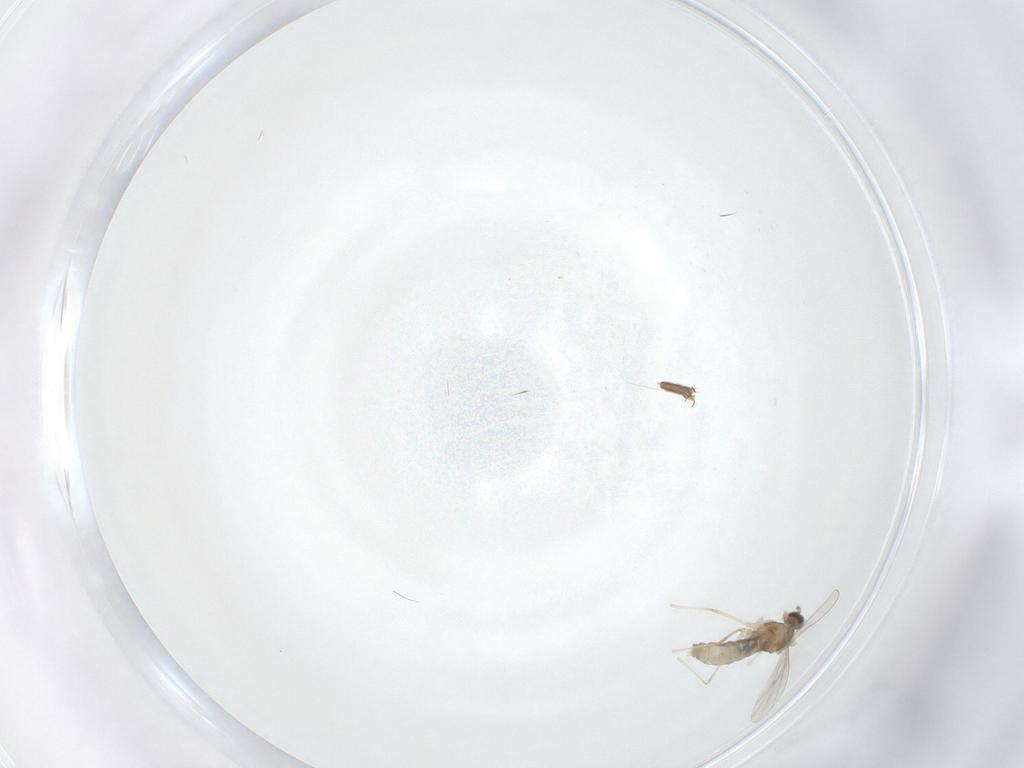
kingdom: Animalia
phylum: Arthropoda
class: Insecta
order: Diptera
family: Cecidomyiidae
